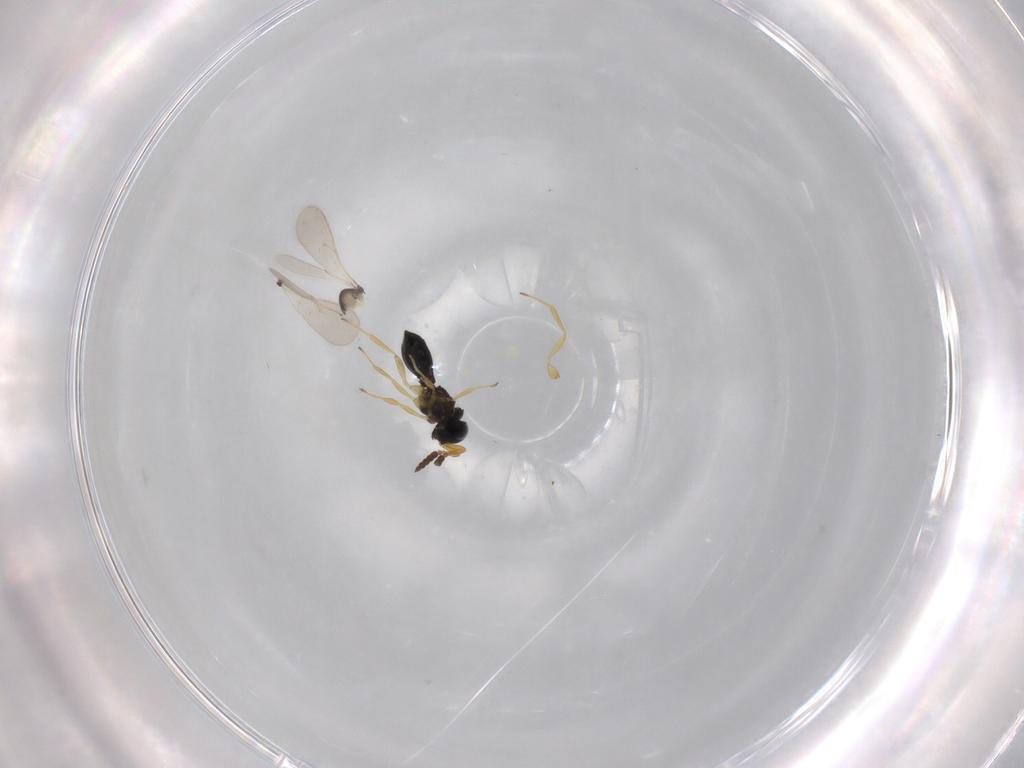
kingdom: Animalia
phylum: Arthropoda
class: Insecta
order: Hymenoptera
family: Scelionidae
